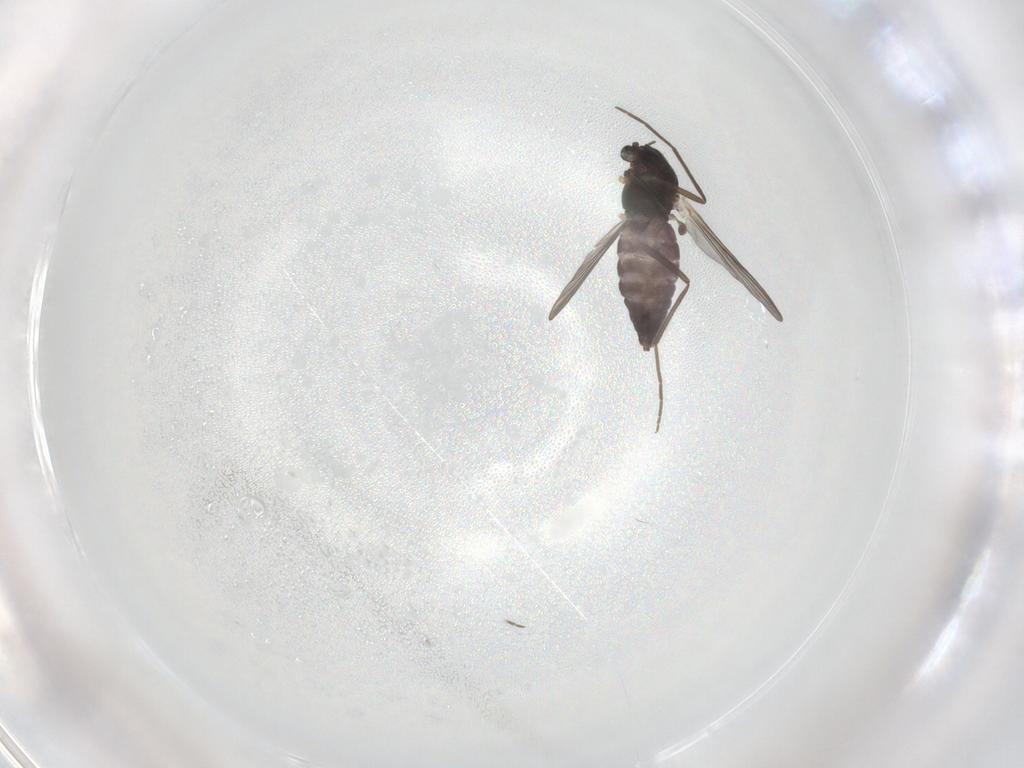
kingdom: Animalia
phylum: Arthropoda
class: Insecta
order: Diptera
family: Chironomidae
